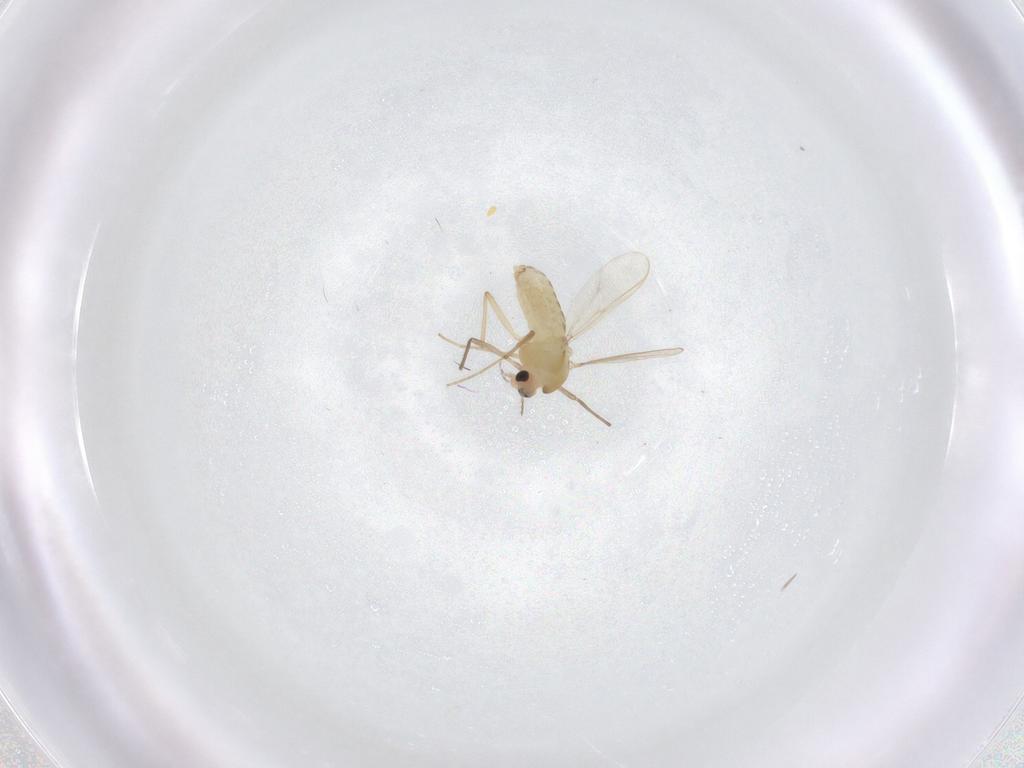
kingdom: Animalia
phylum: Arthropoda
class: Insecta
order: Diptera
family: Chironomidae
